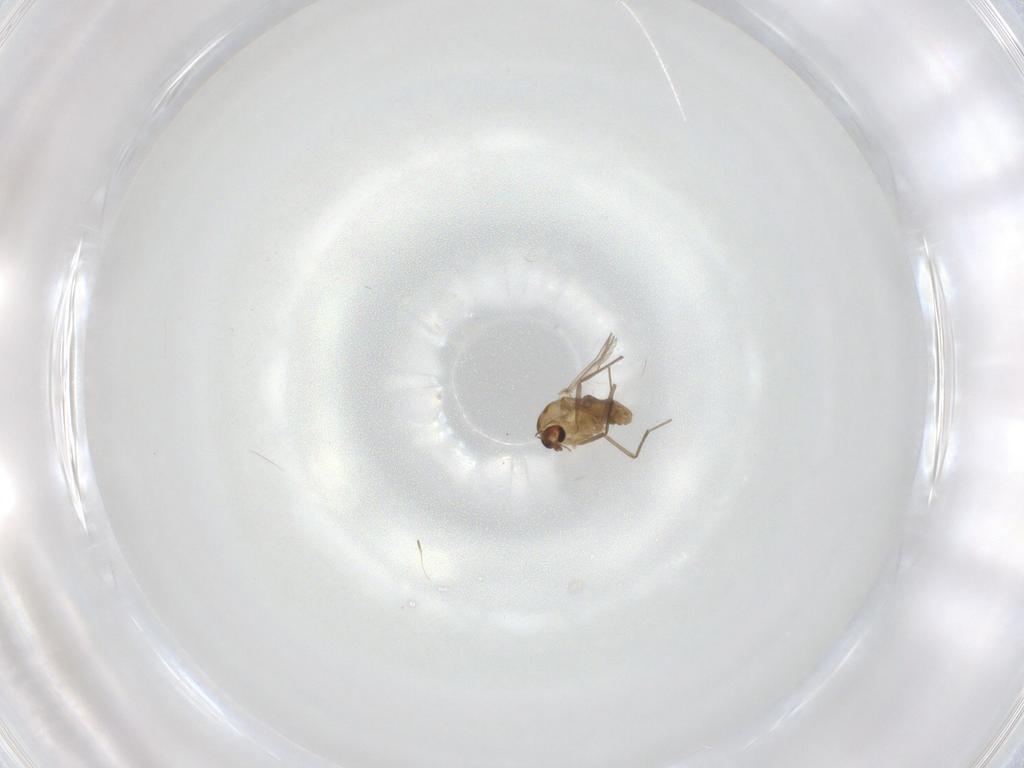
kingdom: Animalia
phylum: Arthropoda
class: Insecta
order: Diptera
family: Chironomidae
